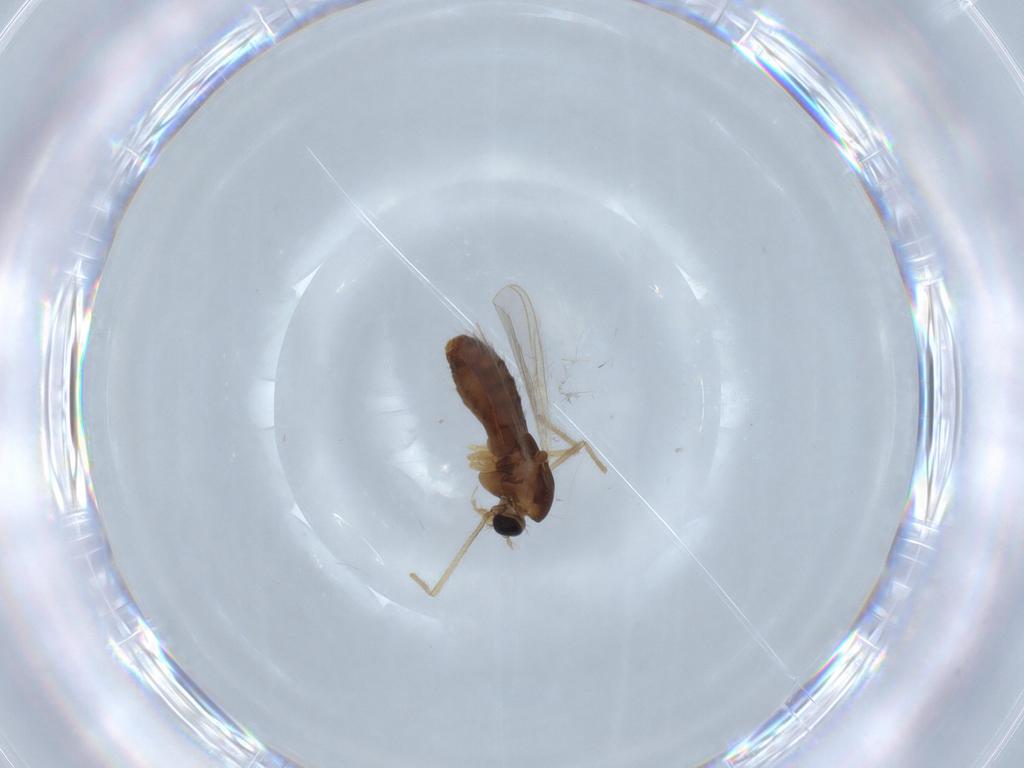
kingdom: Animalia
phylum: Arthropoda
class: Insecta
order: Diptera
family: Chironomidae
